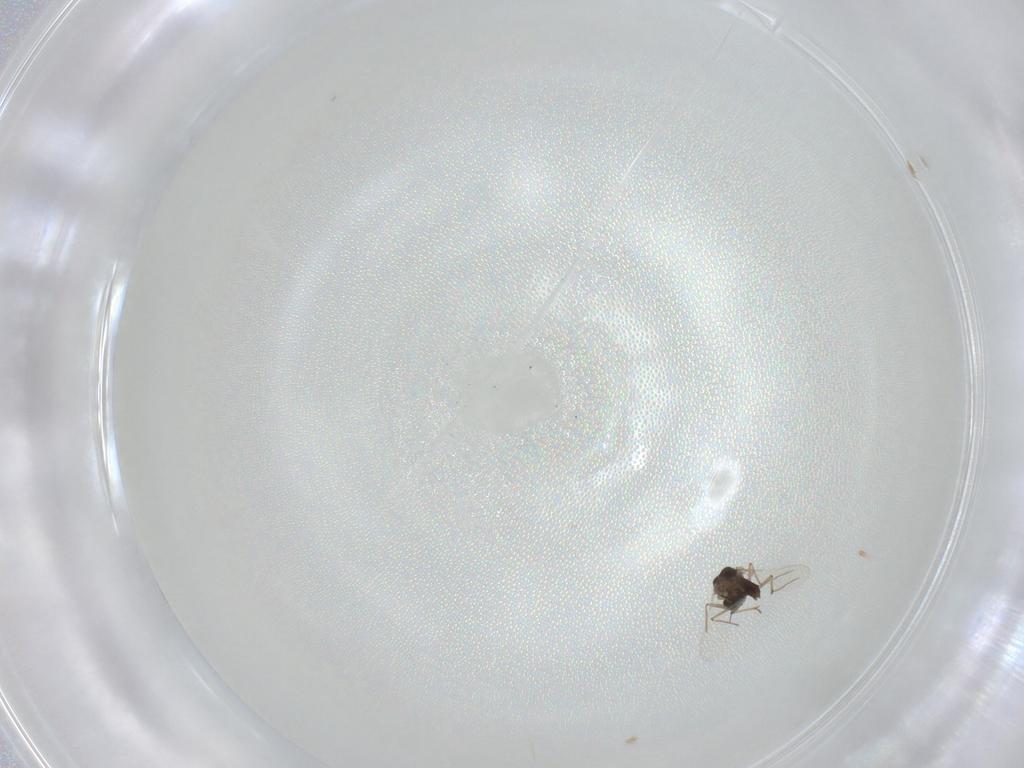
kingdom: Animalia
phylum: Arthropoda
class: Insecta
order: Diptera
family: Chironomidae
